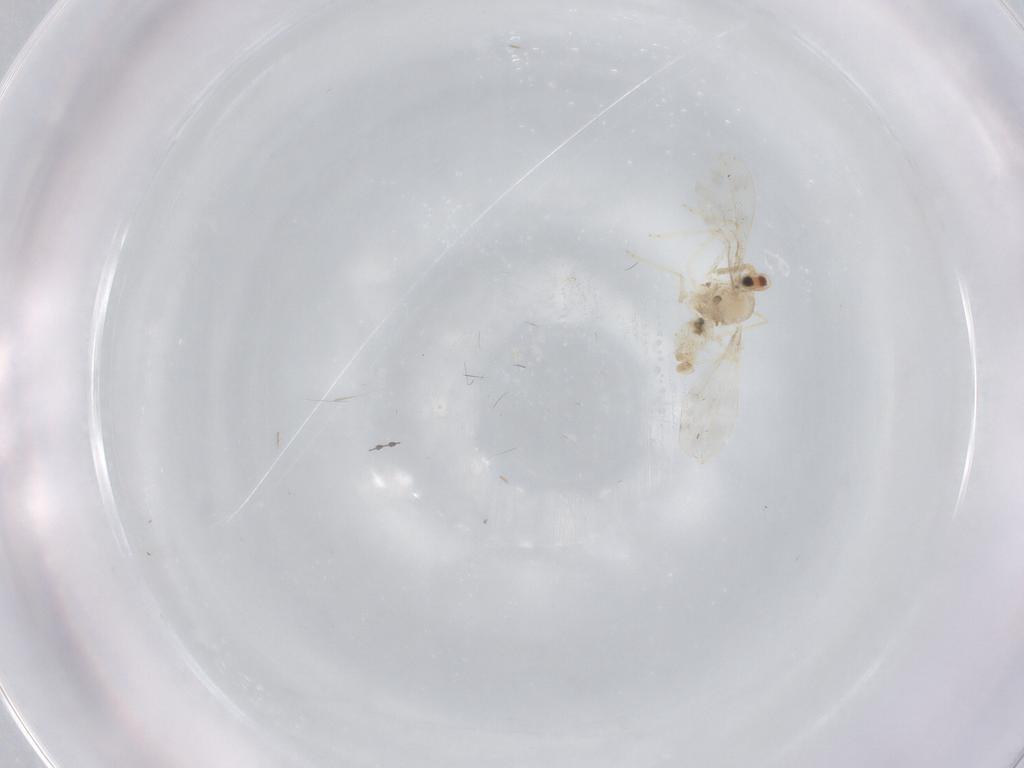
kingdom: Animalia
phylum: Arthropoda
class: Insecta
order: Diptera
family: Cecidomyiidae
